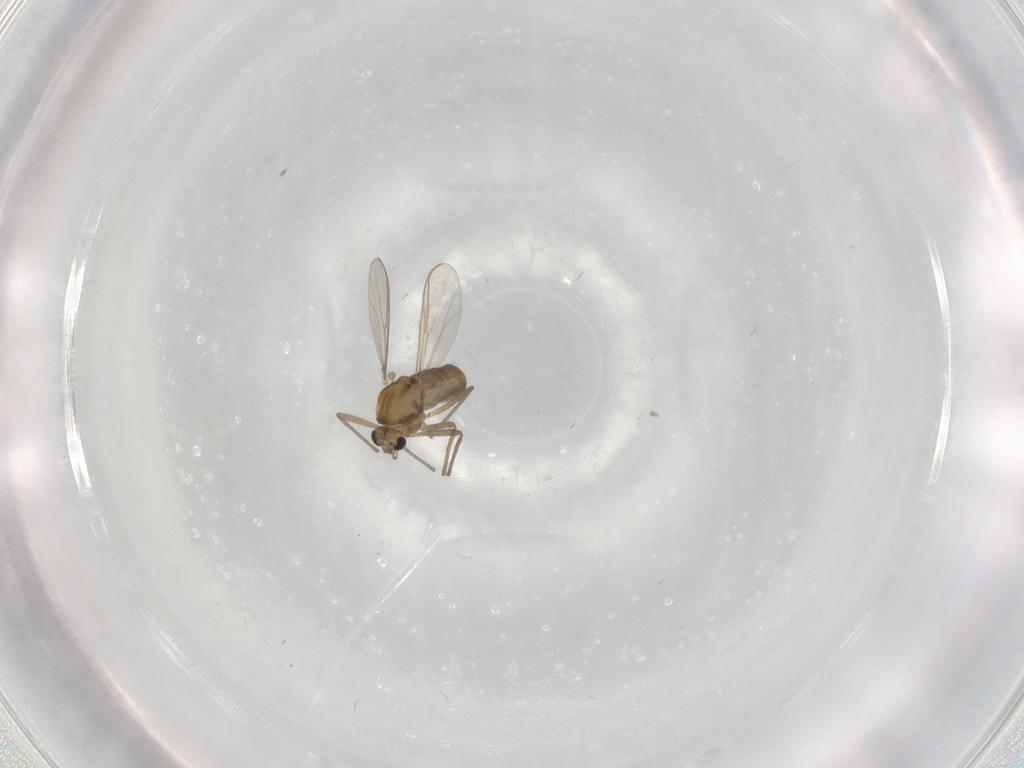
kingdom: Animalia
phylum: Arthropoda
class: Insecta
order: Diptera
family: Chironomidae
